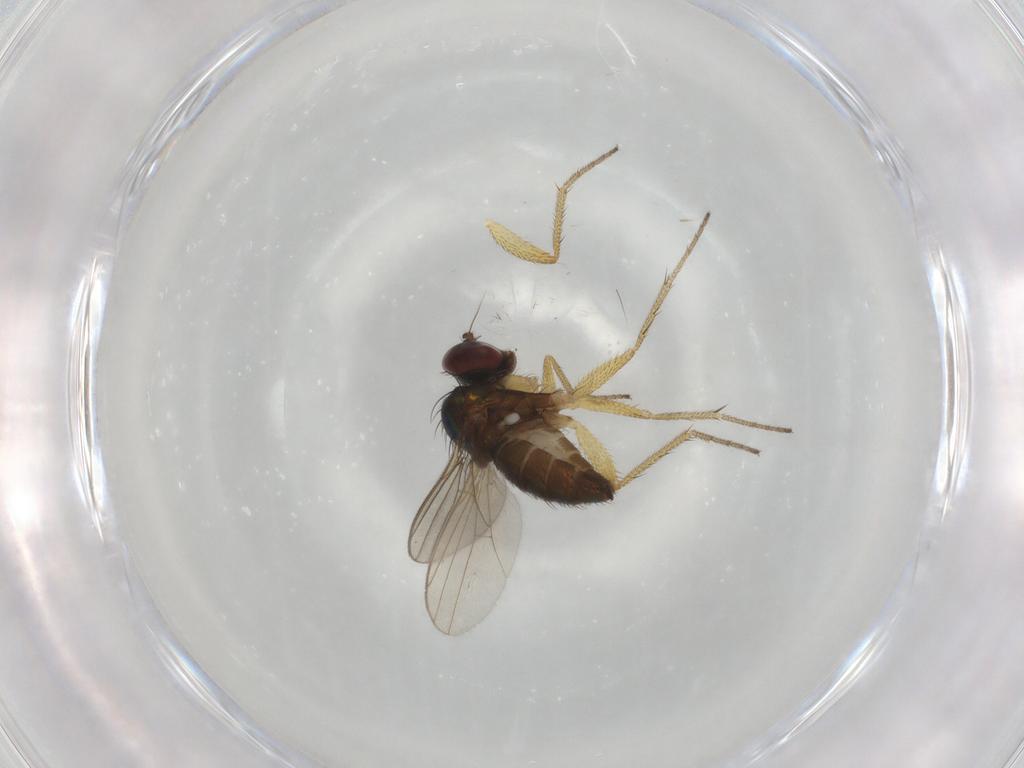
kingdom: Animalia
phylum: Arthropoda
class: Insecta
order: Diptera
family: Dolichopodidae
